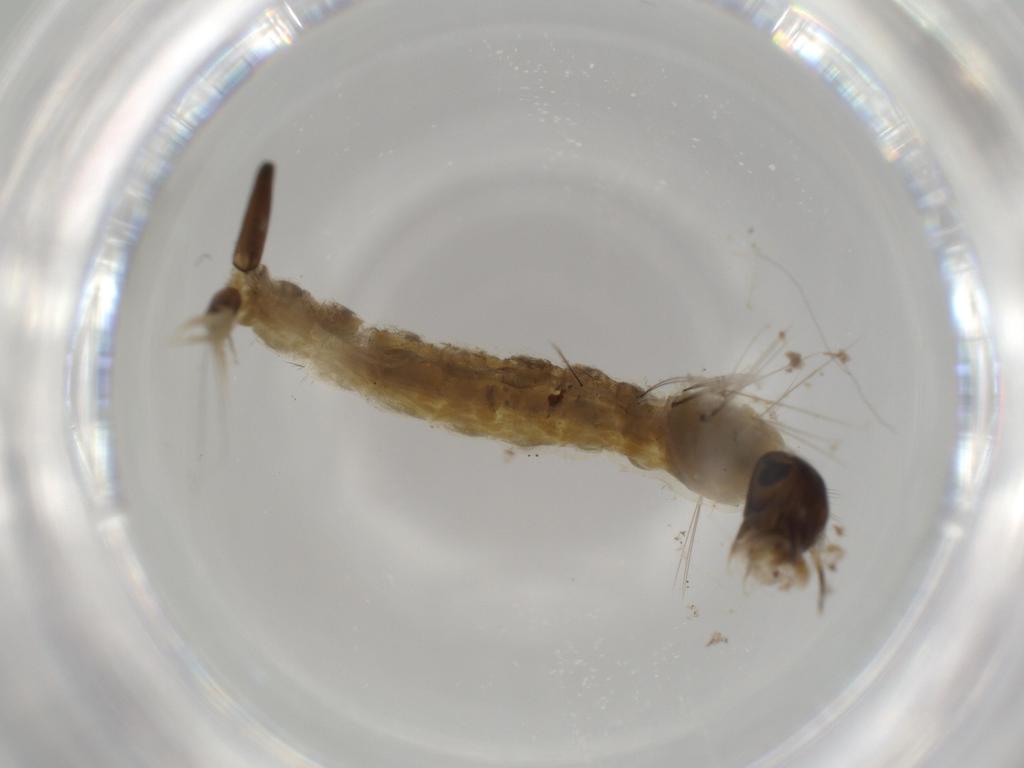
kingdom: Animalia
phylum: Arthropoda
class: Insecta
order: Diptera
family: Culicidae
